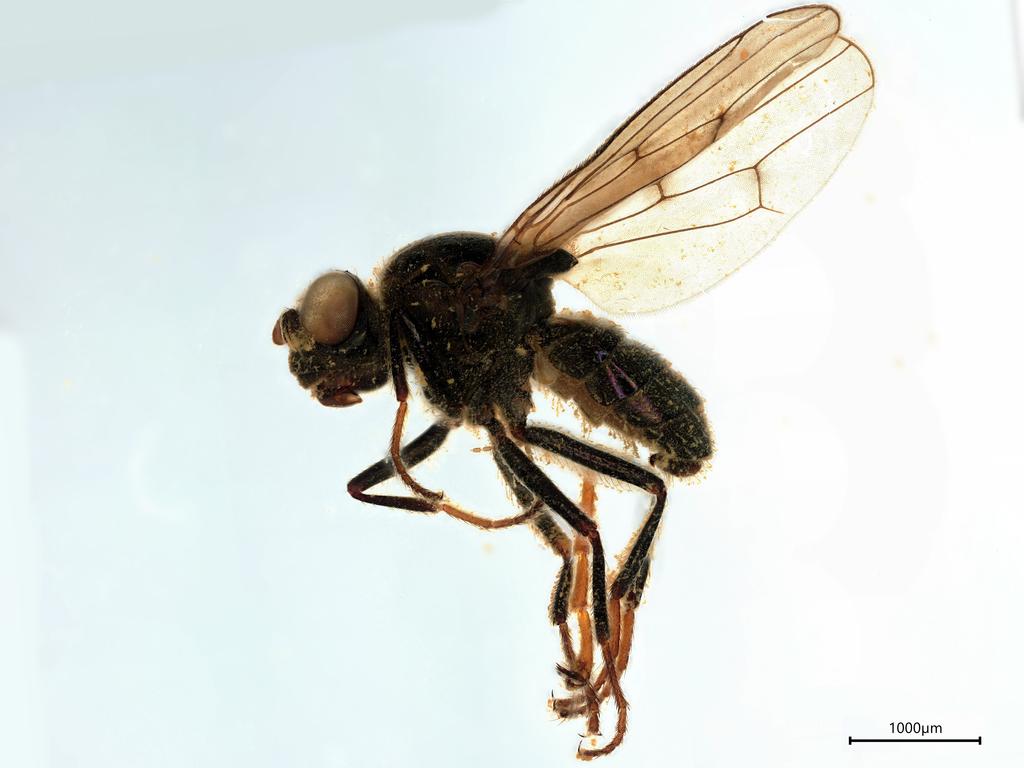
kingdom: Animalia
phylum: Arthropoda
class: Insecta
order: Diptera
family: Ephydridae
